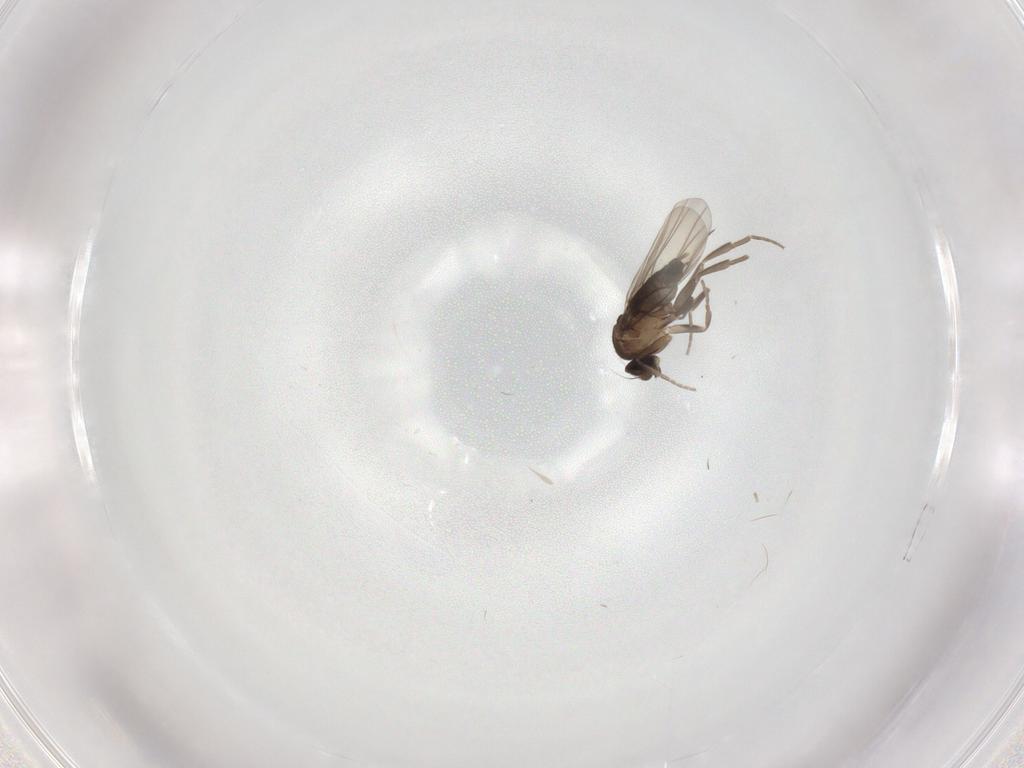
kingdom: Animalia
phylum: Arthropoda
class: Insecta
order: Diptera
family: Phoridae
